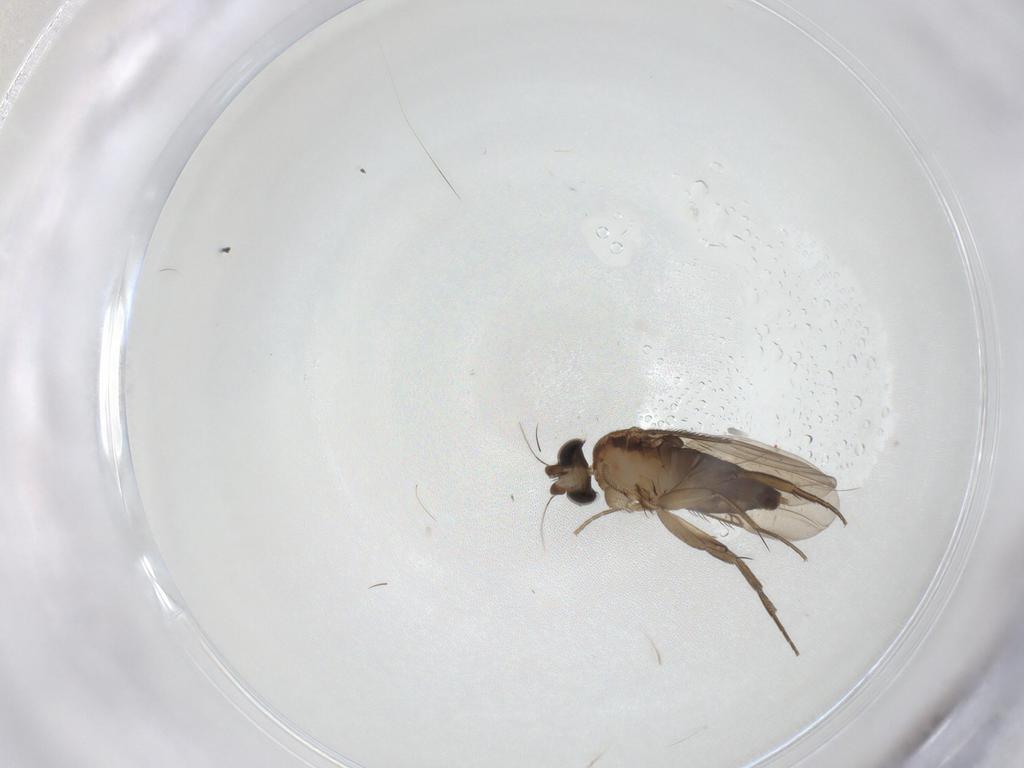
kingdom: Animalia
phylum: Arthropoda
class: Insecta
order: Diptera
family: Phoridae
